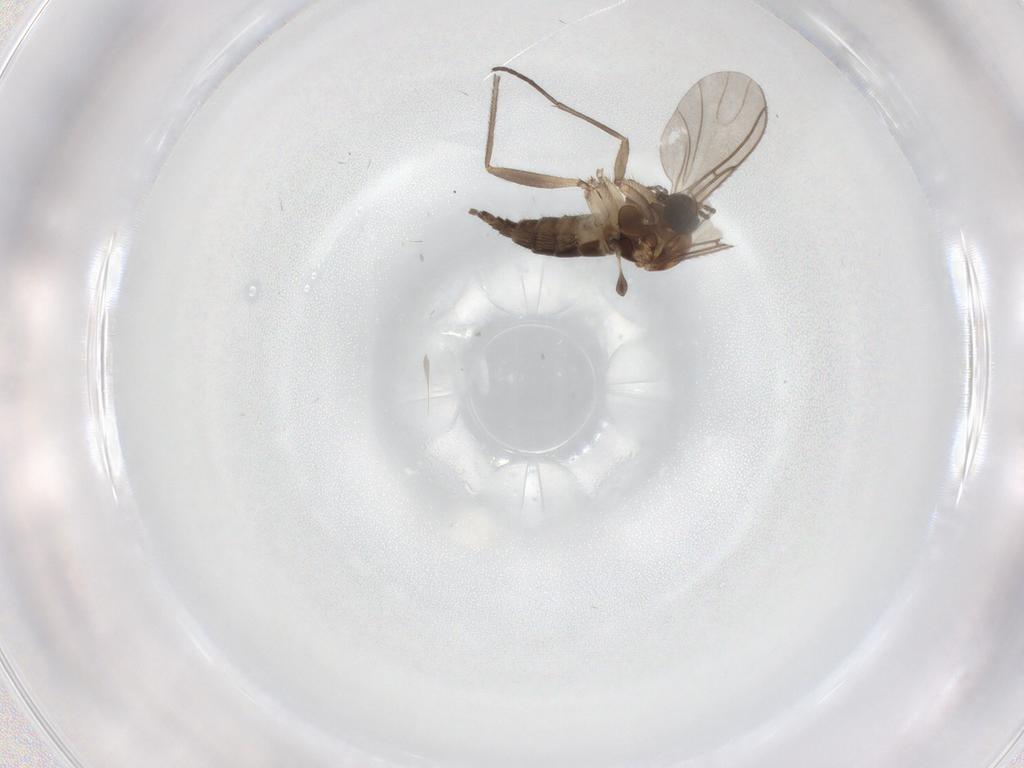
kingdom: Animalia
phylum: Arthropoda
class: Insecta
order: Diptera
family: Sciaridae
